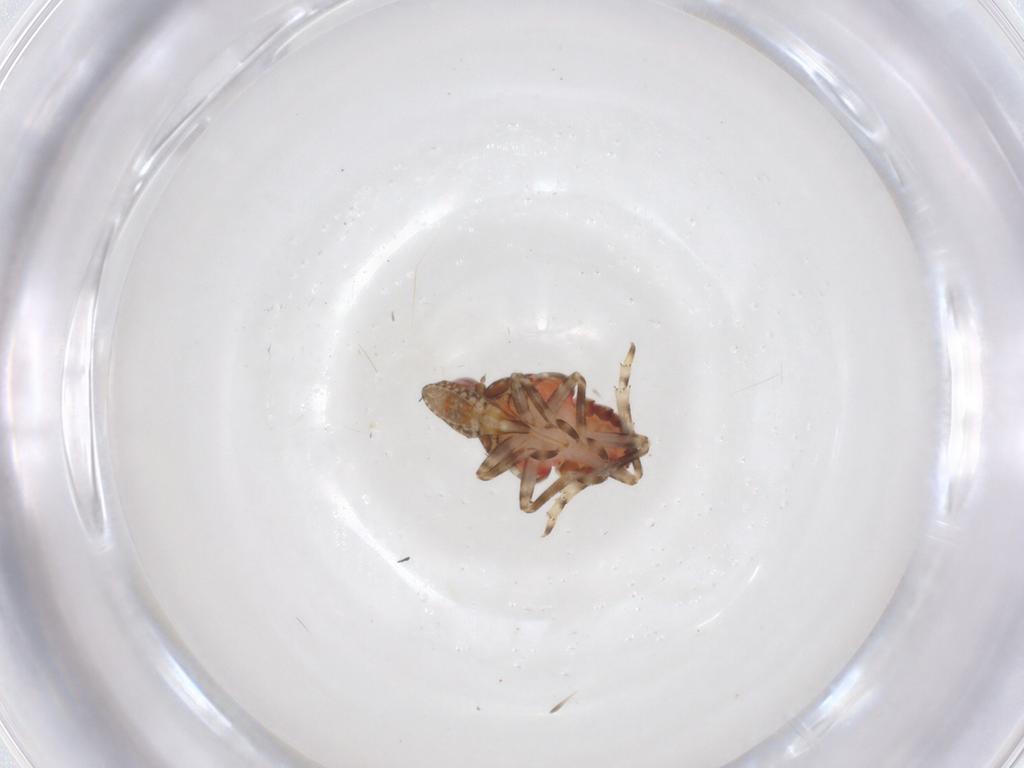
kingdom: Animalia
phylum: Arthropoda
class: Insecta
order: Hemiptera
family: Tropiduchidae
